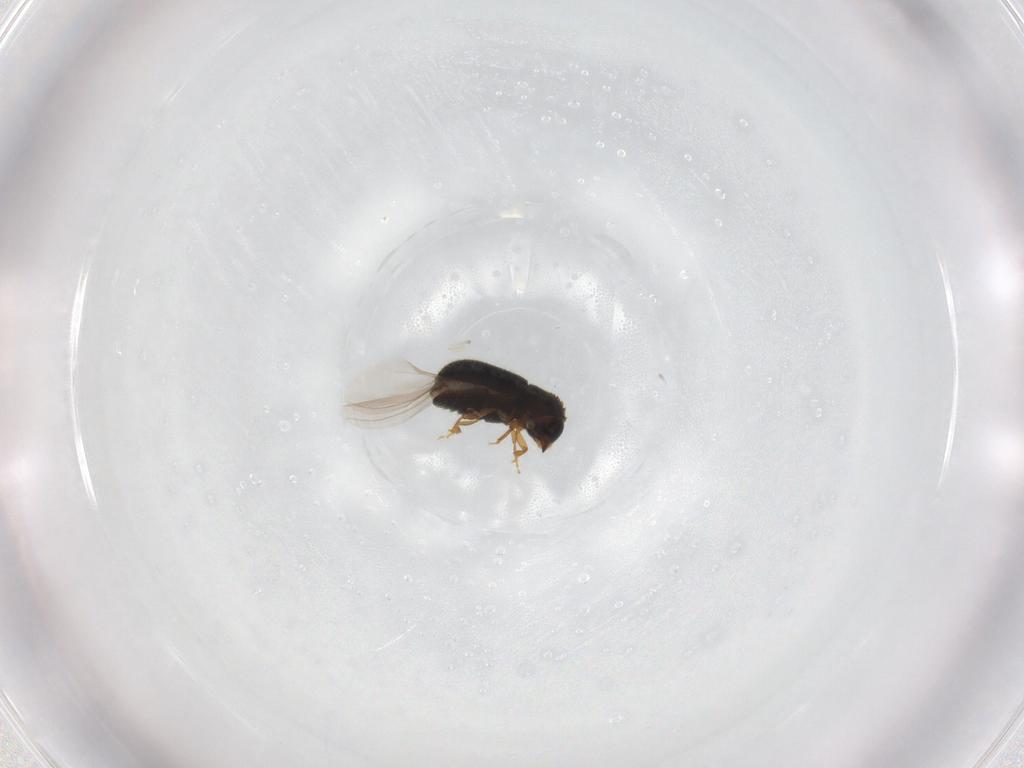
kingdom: Animalia
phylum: Arthropoda
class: Insecta
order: Coleoptera
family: Curculionidae
